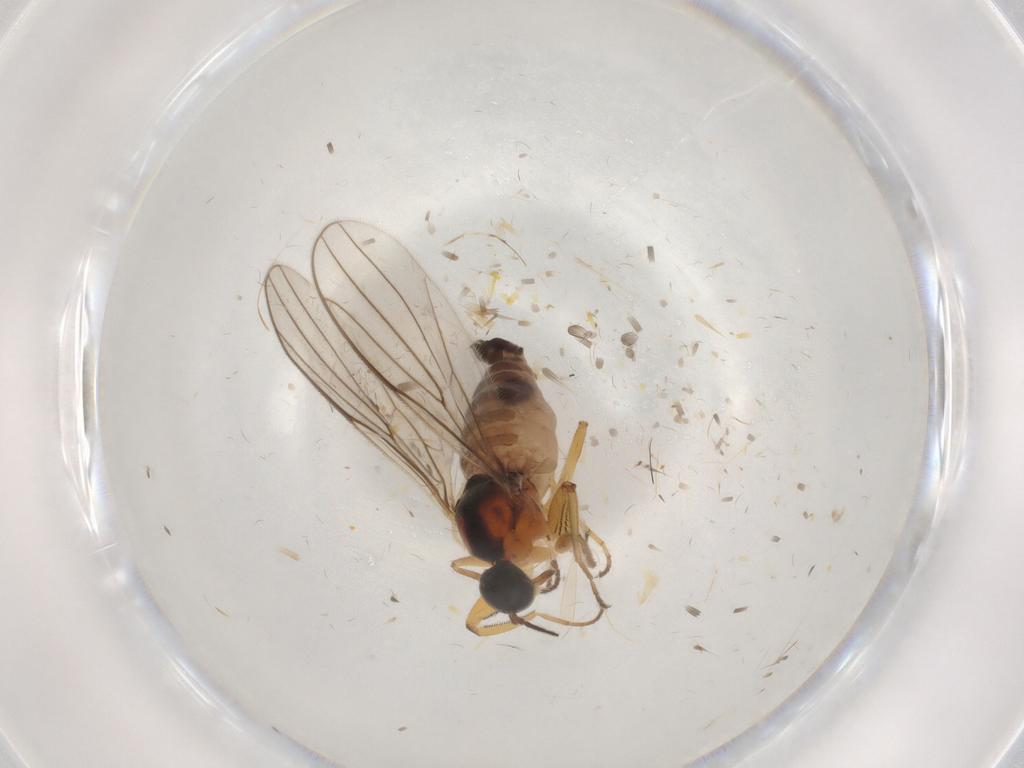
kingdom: Animalia
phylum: Arthropoda
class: Insecta
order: Diptera
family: Hybotidae
